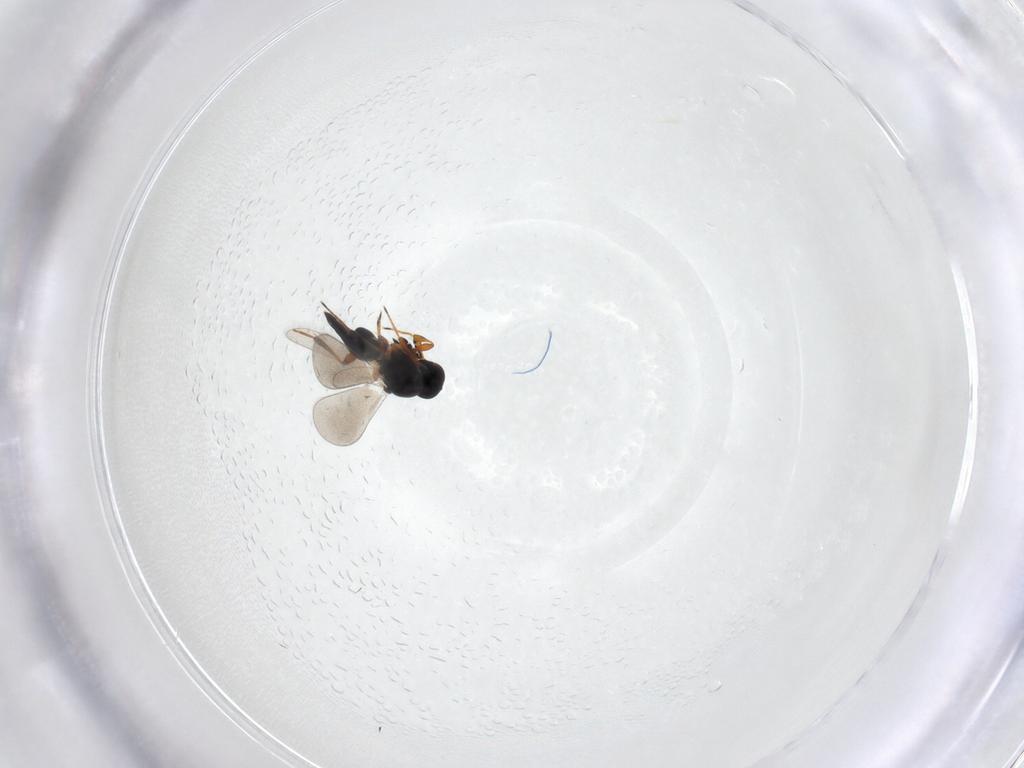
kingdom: Animalia
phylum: Arthropoda
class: Insecta
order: Hymenoptera
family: Platygastridae
